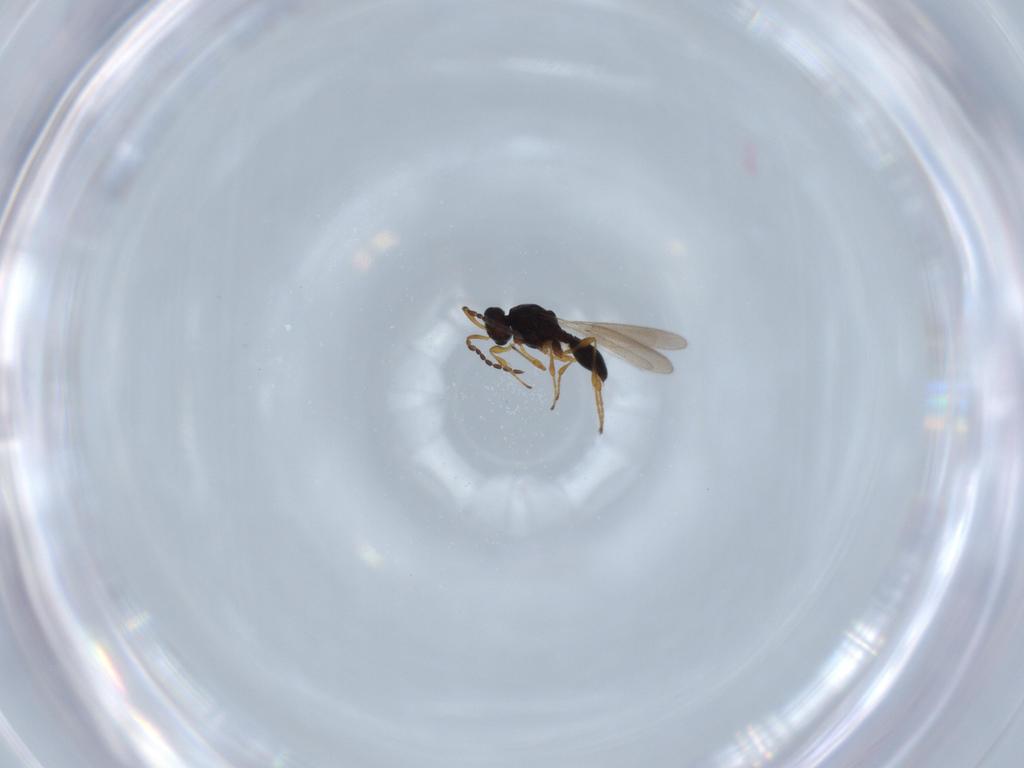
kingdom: Animalia
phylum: Arthropoda
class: Insecta
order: Diptera
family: Mythicomyiidae
